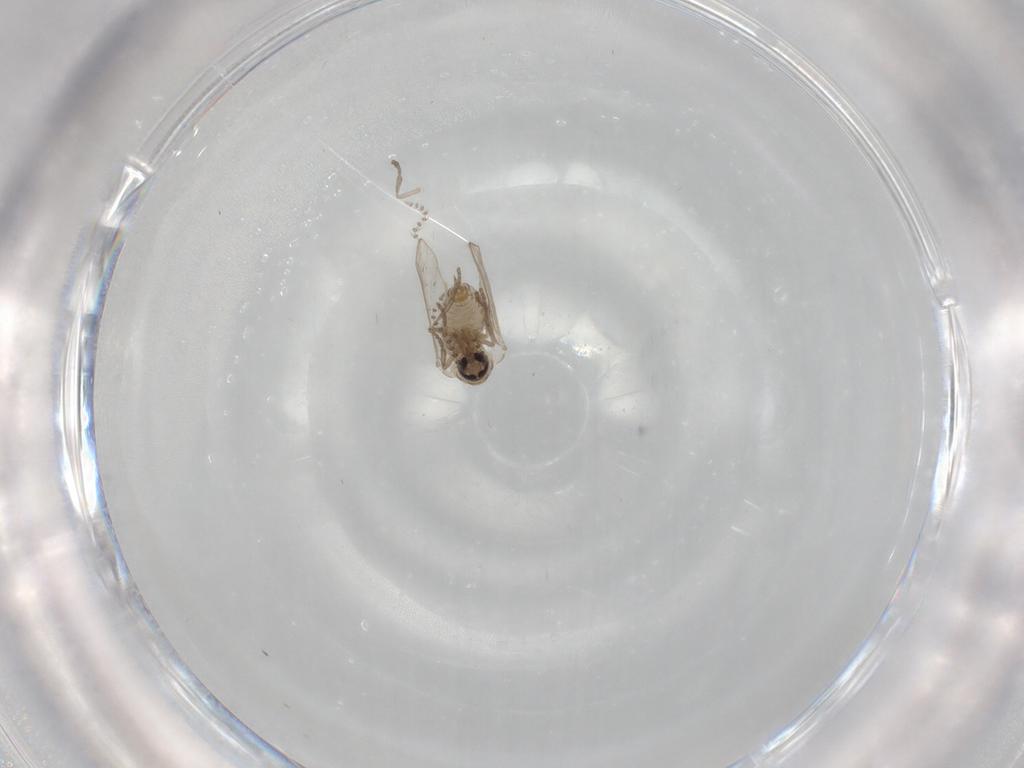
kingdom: Animalia
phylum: Arthropoda
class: Insecta
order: Diptera
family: Psychodidae
